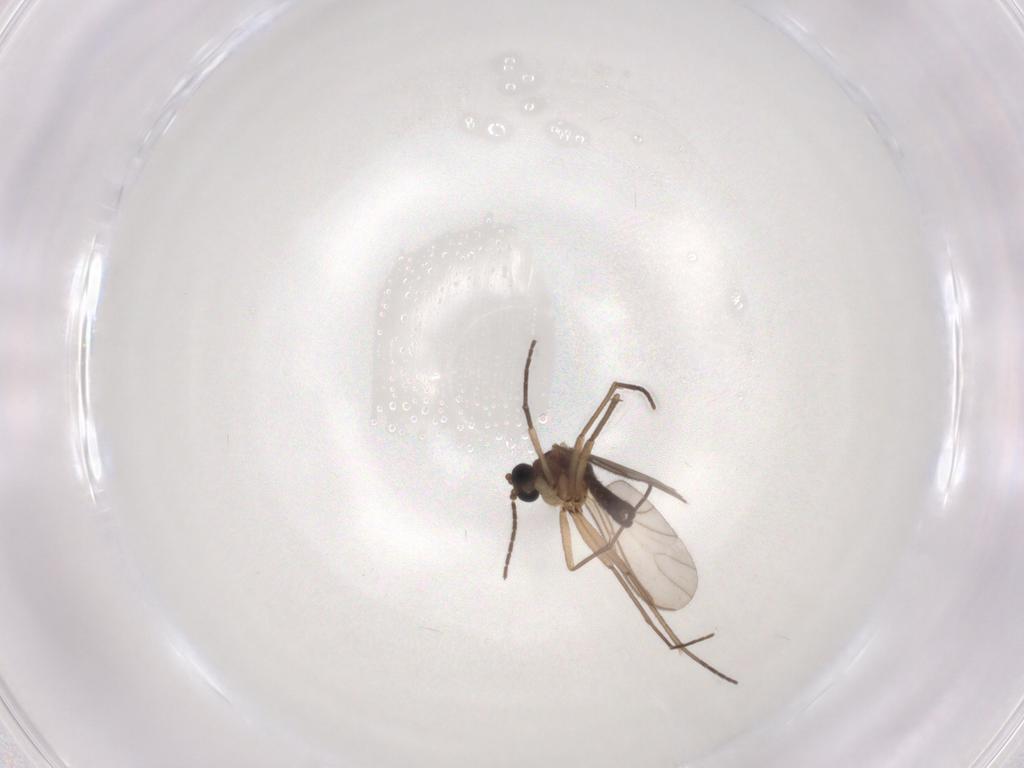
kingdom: Animalia
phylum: Arthropoda
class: Insecta
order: Diptera
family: Sciaridae
